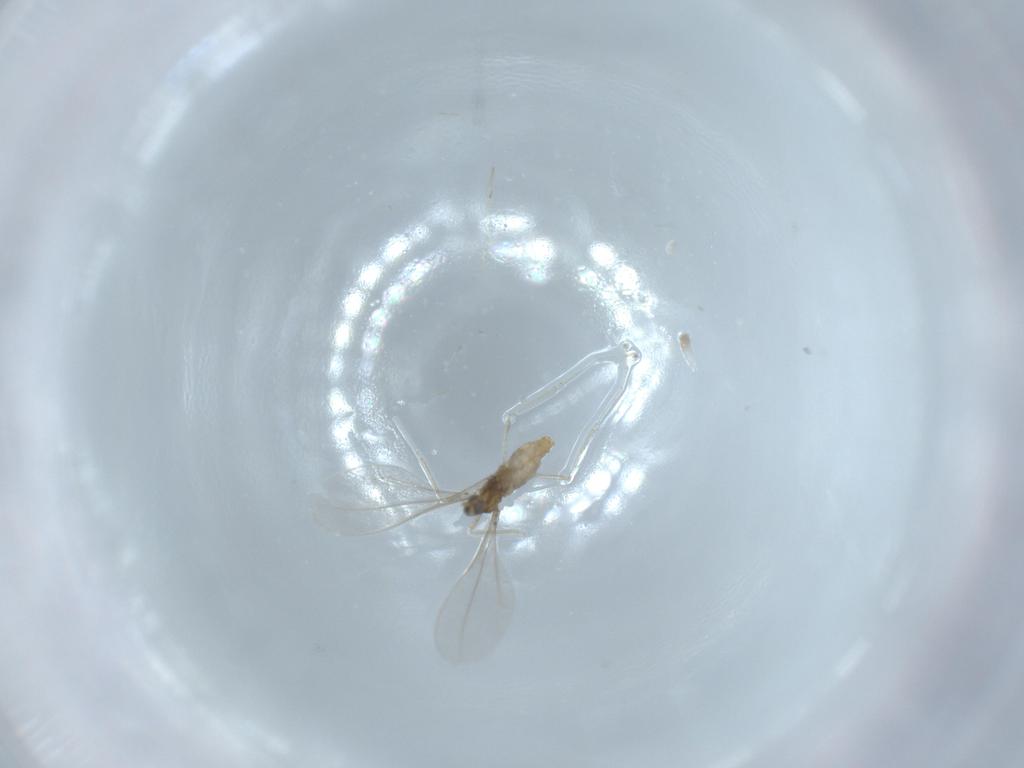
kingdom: Animalia
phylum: Arthropoda
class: Insecta
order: Diptera
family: Cecidomyiidae
